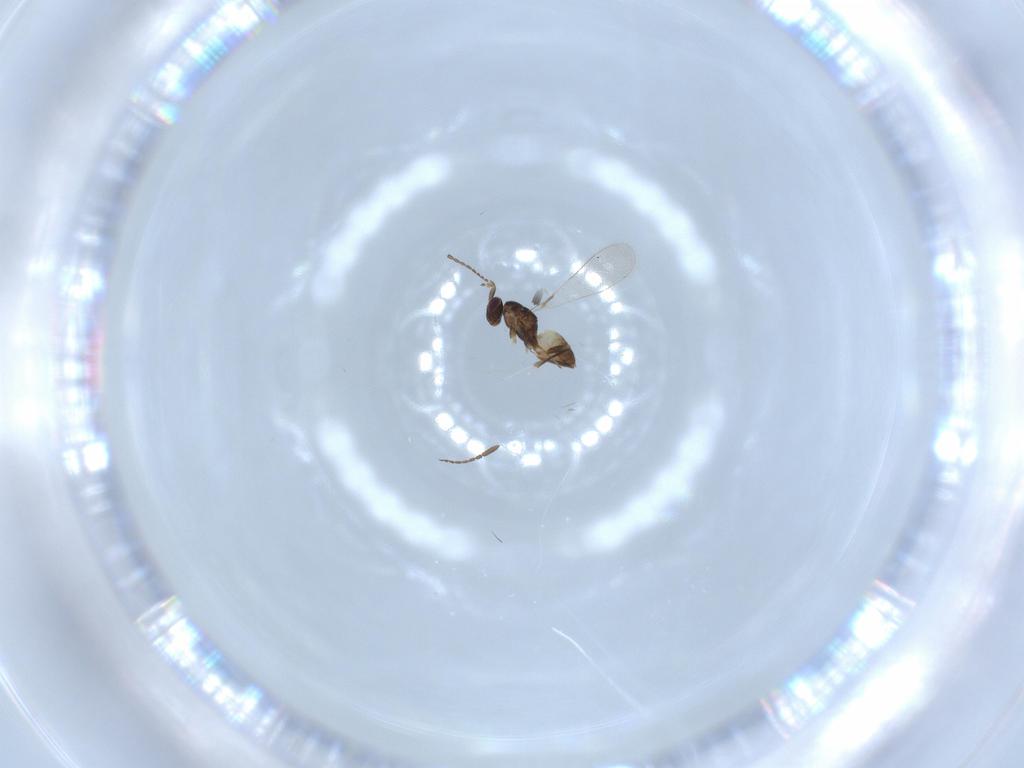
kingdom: Animalia
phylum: Arthropoda
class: Insecta
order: Hymenoptera
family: Mymaridae
